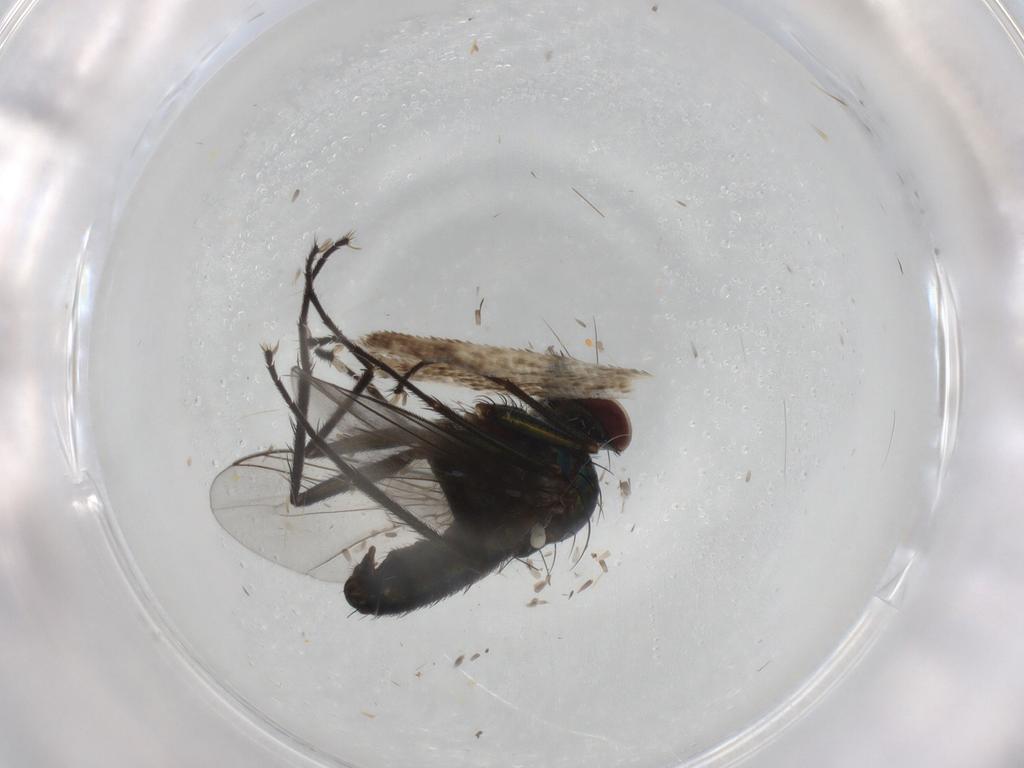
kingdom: Animalia
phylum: Arthropoda
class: Insecta
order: Diptera
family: Dolichopodidae
